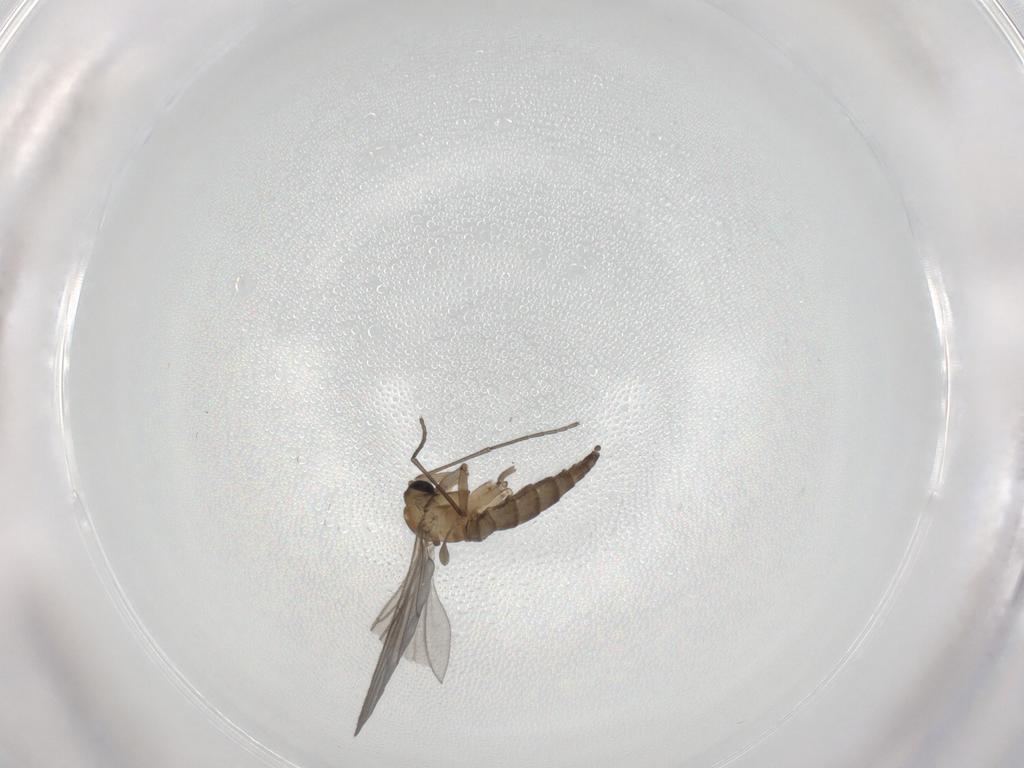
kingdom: Animalia
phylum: Arthropoda
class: Insecta
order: Diptera
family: Sciaridae
